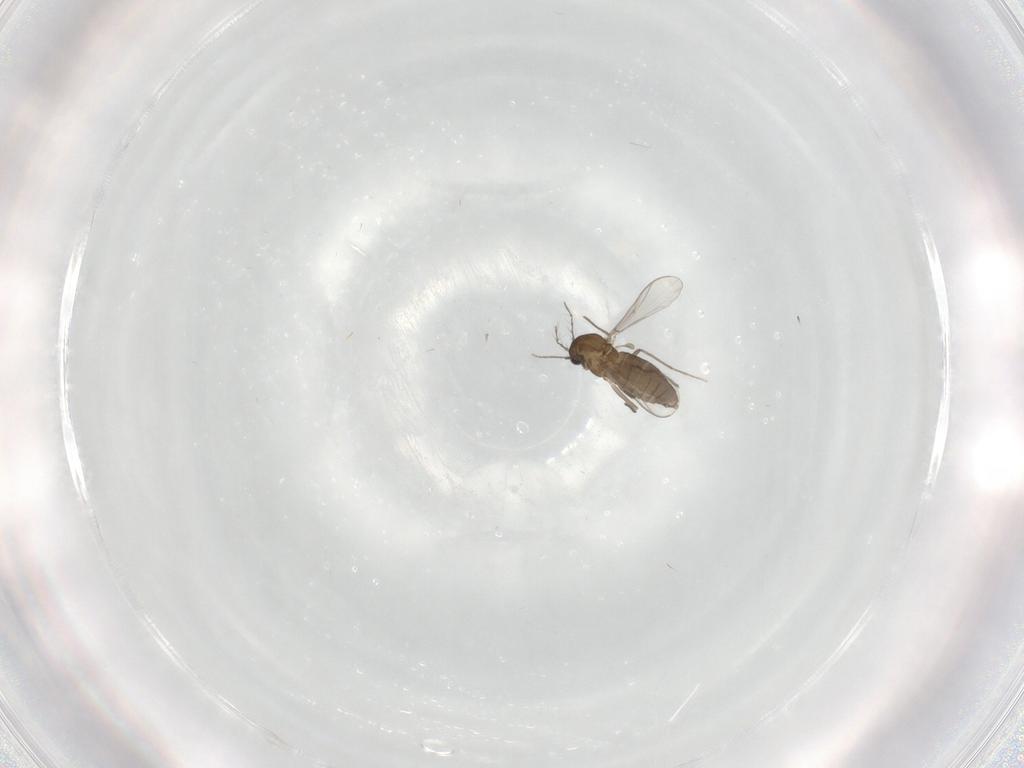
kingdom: Animalia
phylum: Arthropoda
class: Insecta
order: Diptera
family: Chironomidae
